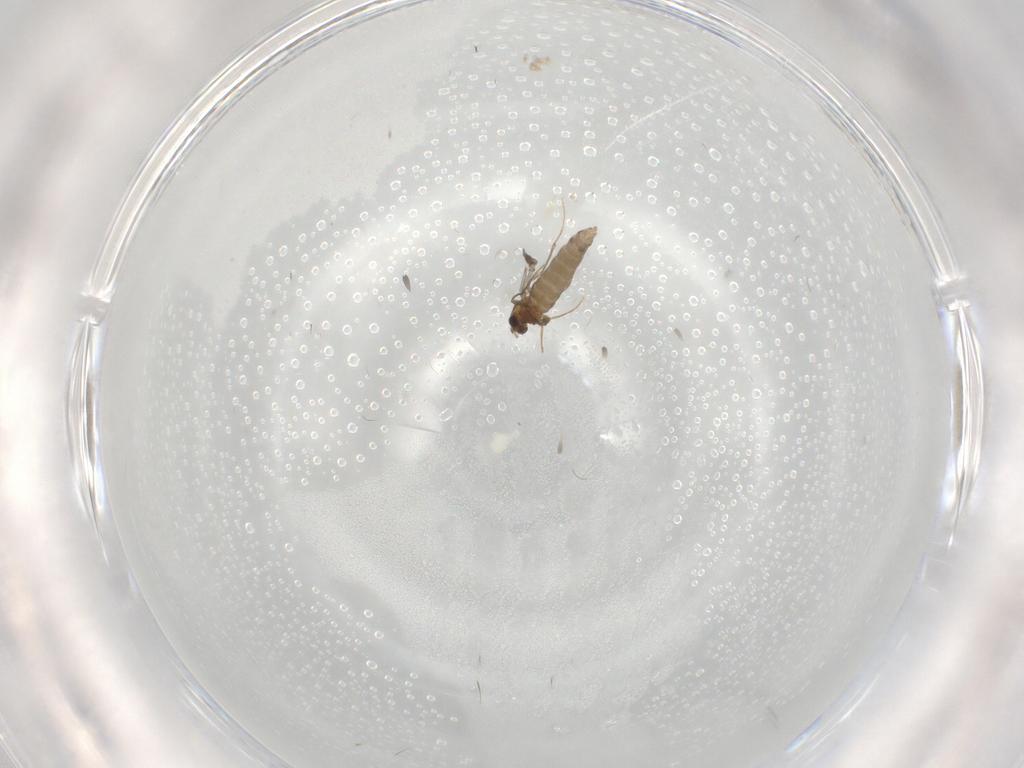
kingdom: Animalia
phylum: Arthropoda
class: Insecta
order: Diptera
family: Chironomidae
